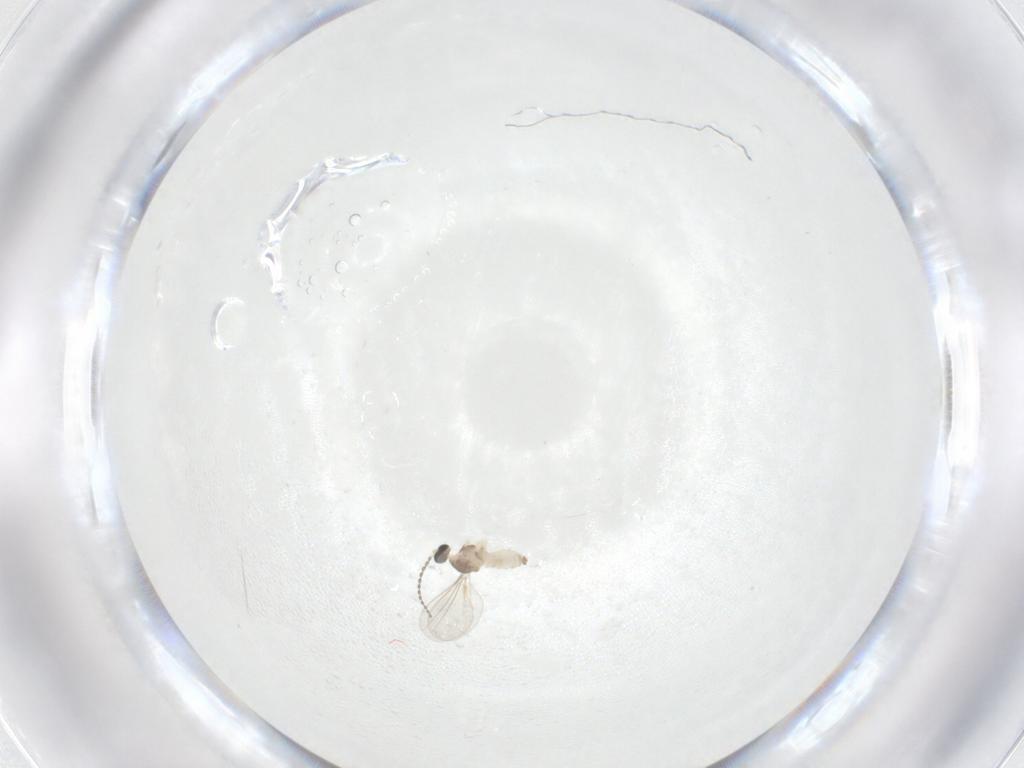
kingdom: Animalia
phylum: Arthropoda
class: Insecta
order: Diptera
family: Cecidomyiidae
